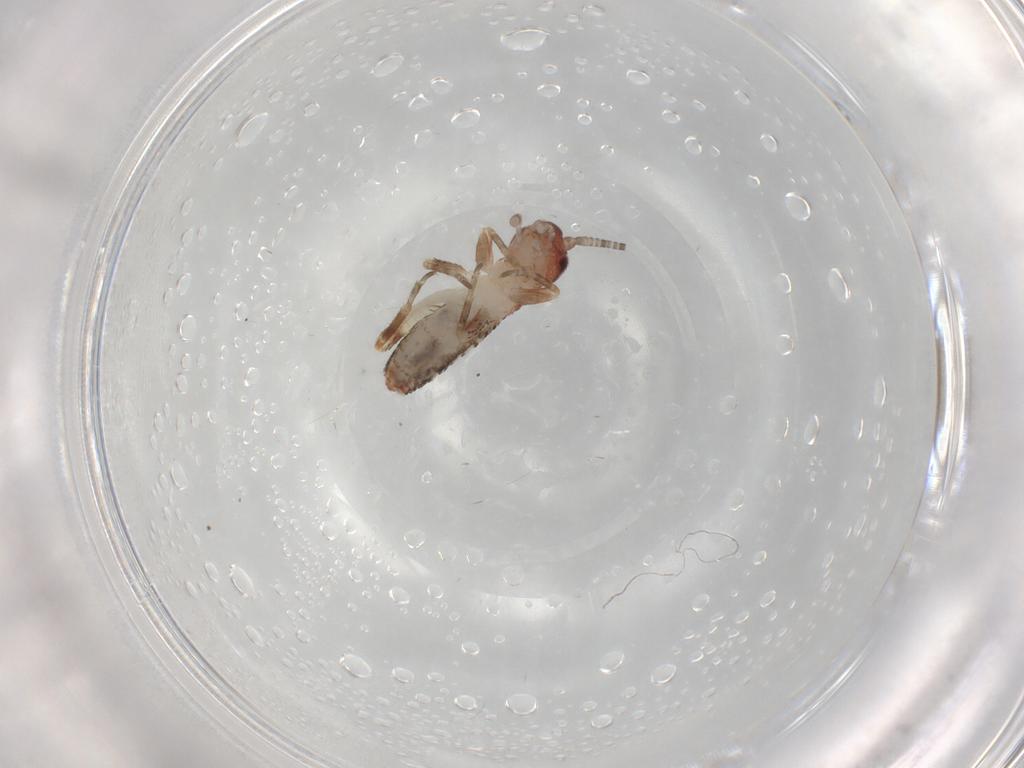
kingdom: Animalia
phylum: Arthropoda
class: Insecta
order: Orthoptera
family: Mogoplistidae
